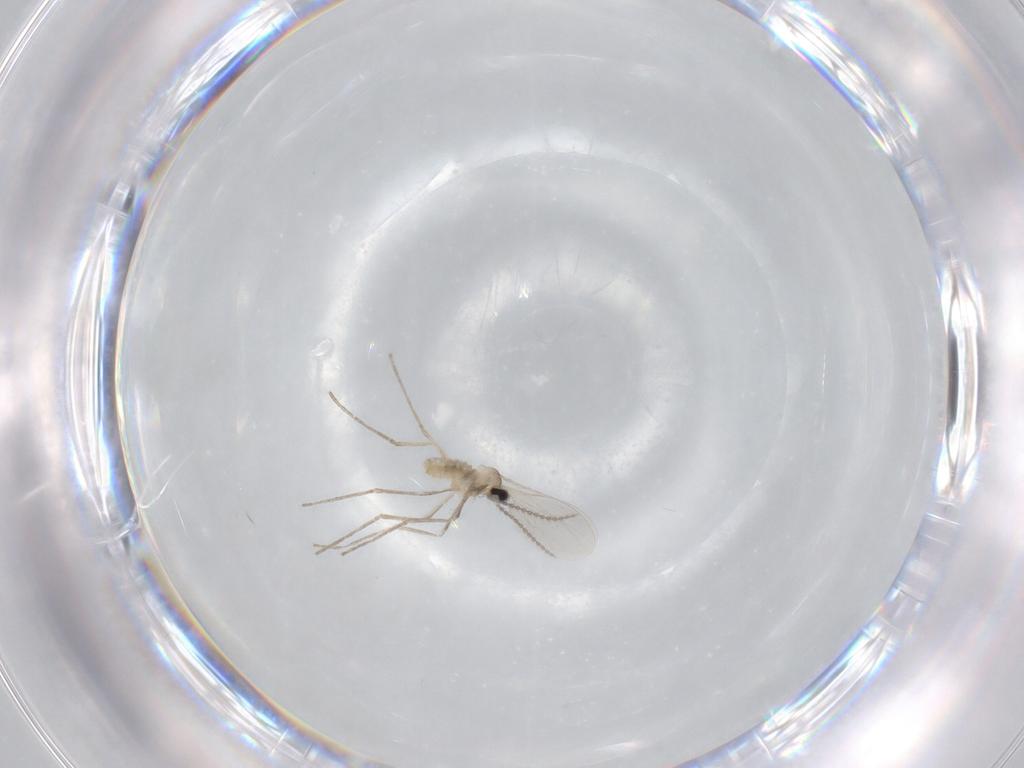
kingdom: Animalia
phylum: Arthropoda
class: Insecta
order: Diptera
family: Cecidomyiidae
